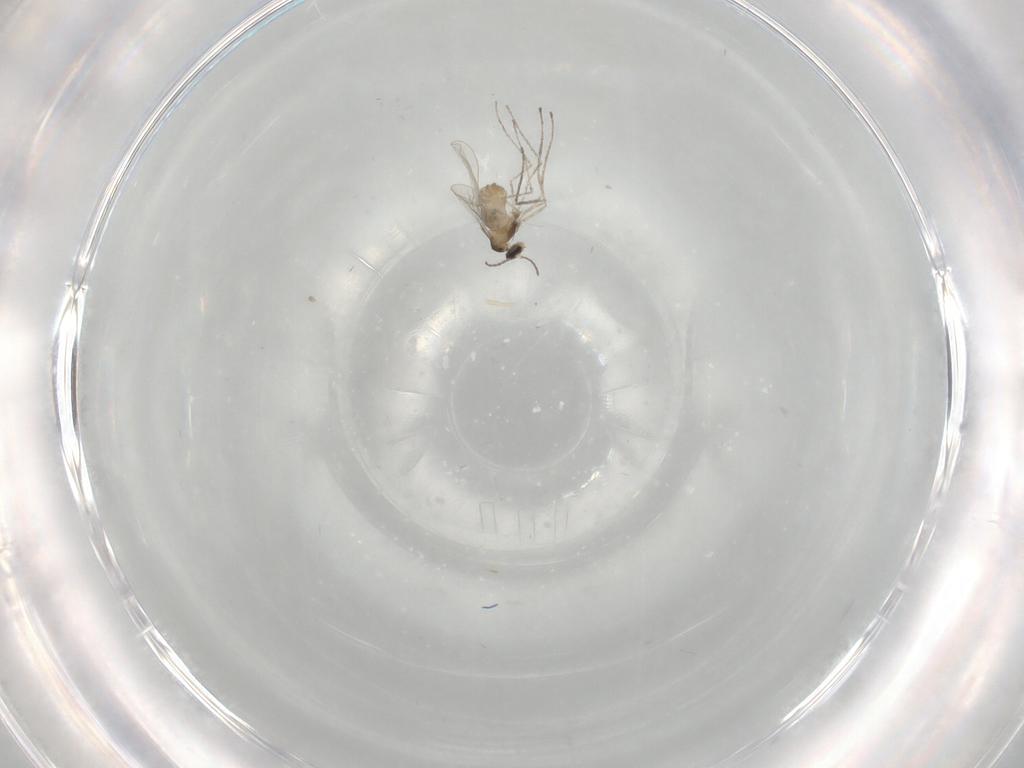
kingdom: Animalia
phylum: Arthropoda
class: Insecta
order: Diptera
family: Cecidomyiidae
